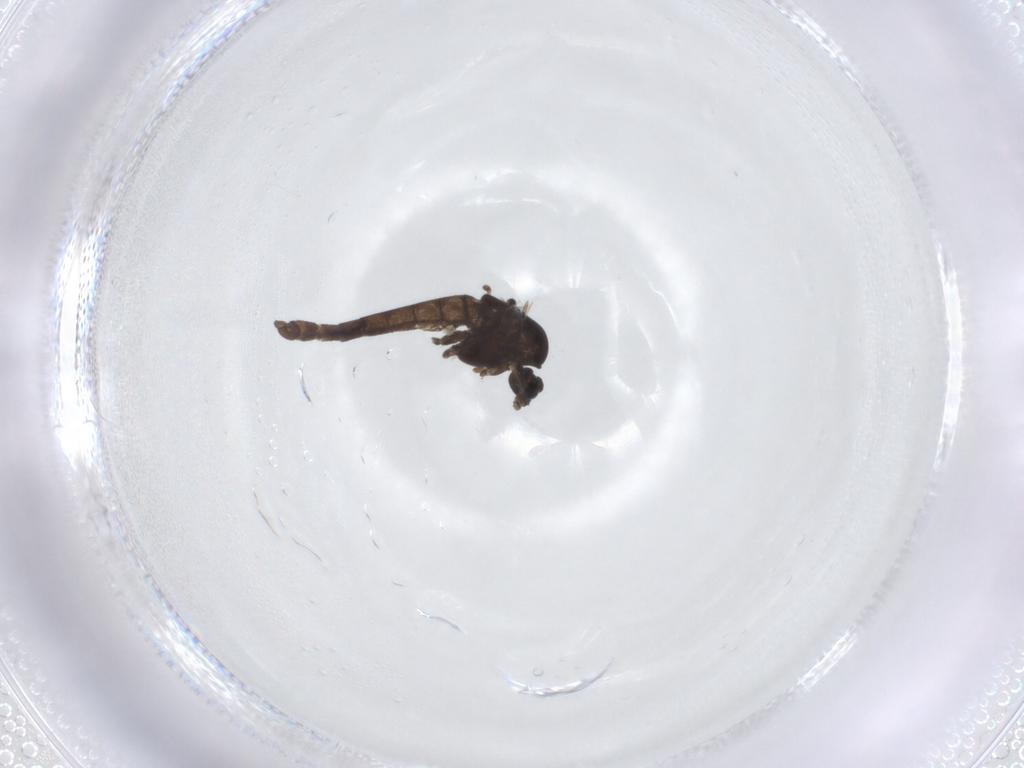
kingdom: Animalia
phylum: Arthropoda
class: Insecta
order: Diptera
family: Chironomidae
